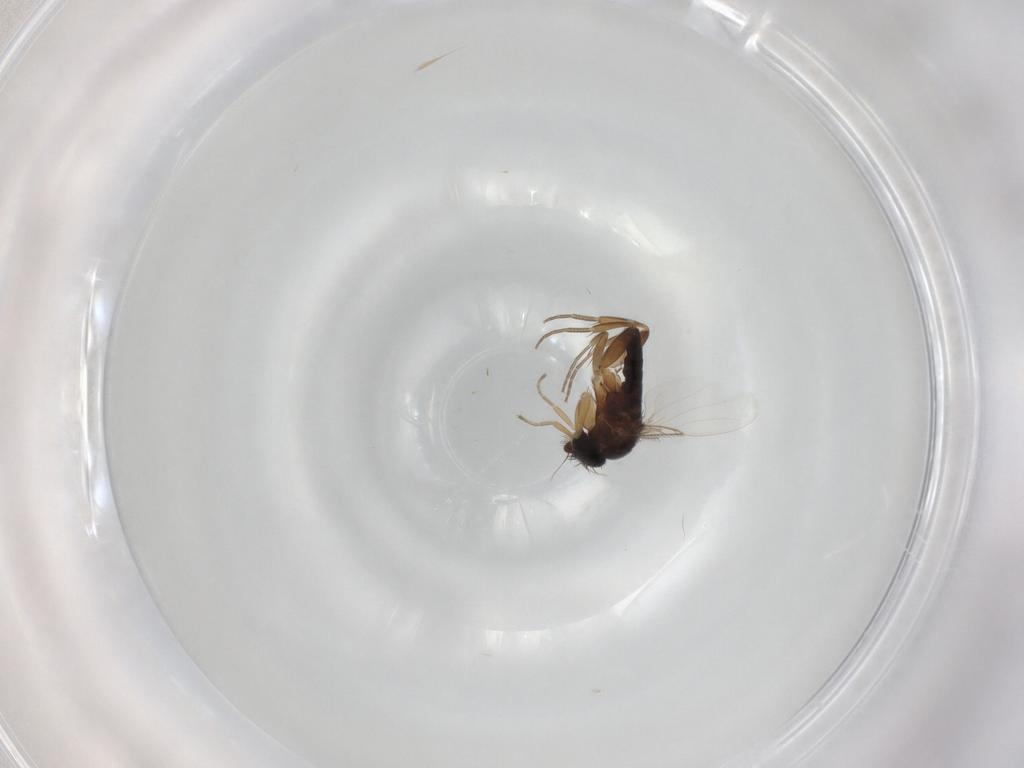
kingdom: Animalia
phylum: Arthropoda
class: Insecta
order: Diptera
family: Phoridae
